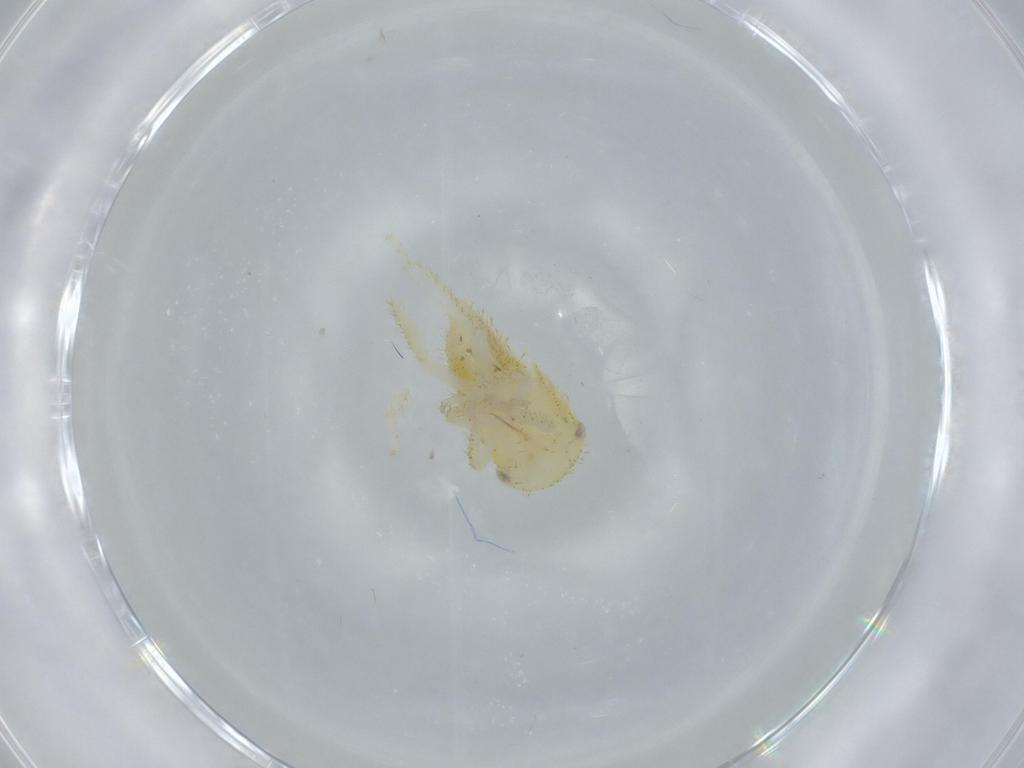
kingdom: Animalia
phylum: Arthropoda
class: Insecta
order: Hemiptera
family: Cicadellidae
